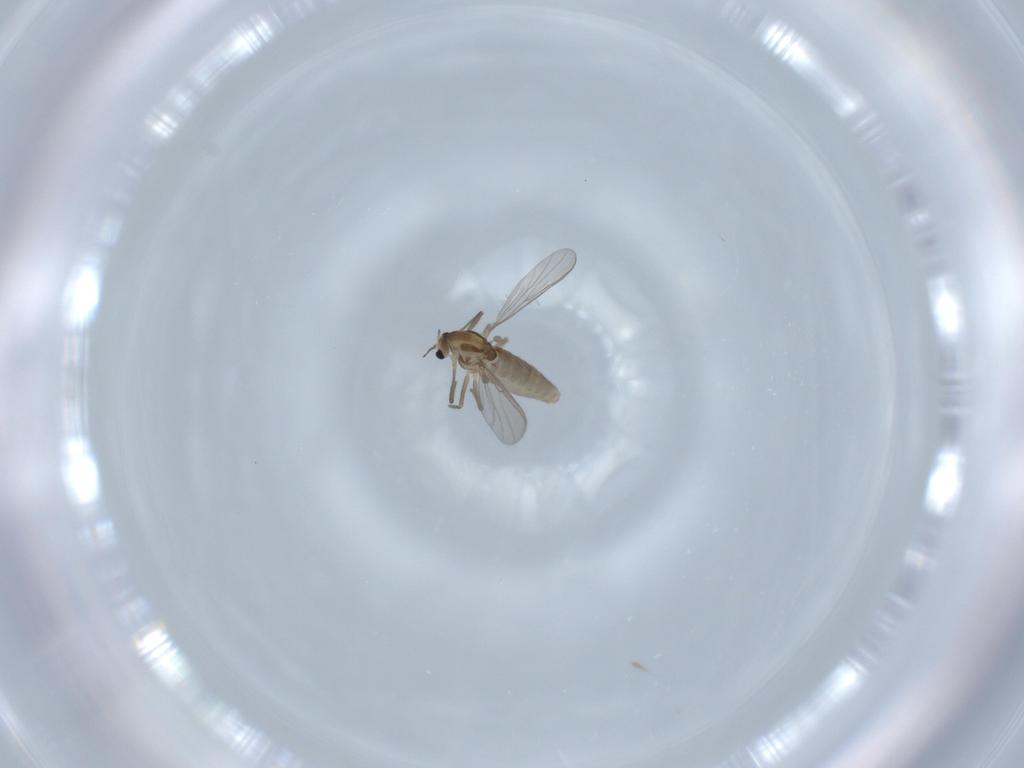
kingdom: Animalia
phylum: Arthropoda
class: Insecta
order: Diptera
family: Chironomidae
